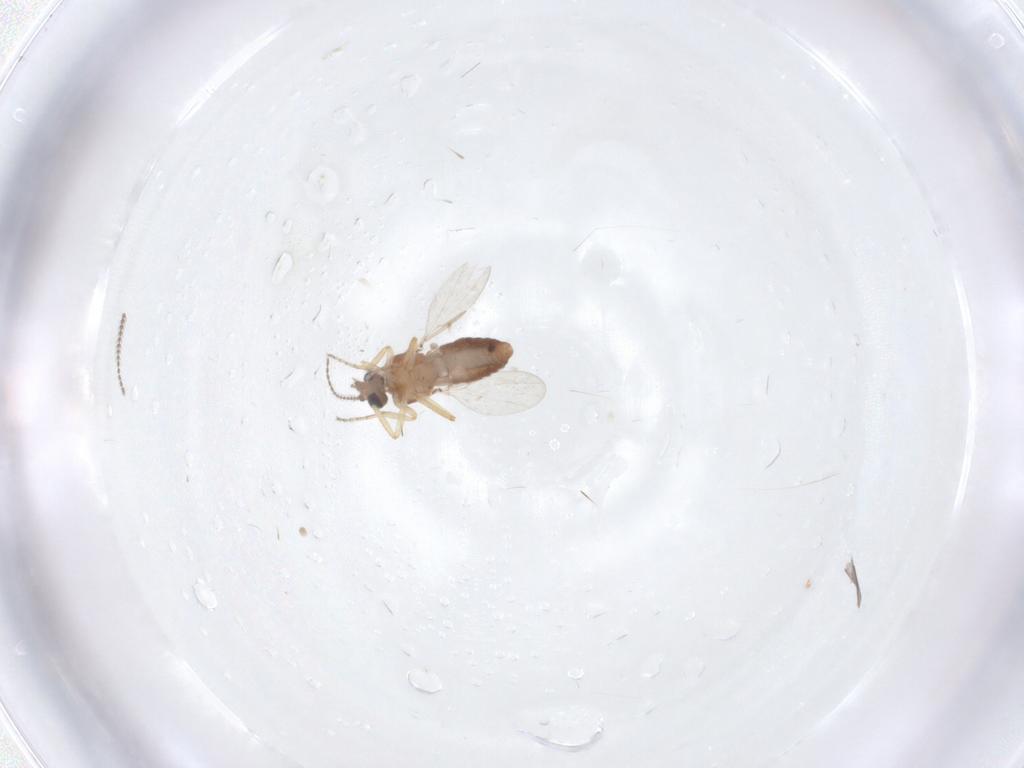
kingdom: Animalia
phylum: Arthropoda
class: Insecta
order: Diptera
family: Ceratopogonidae
